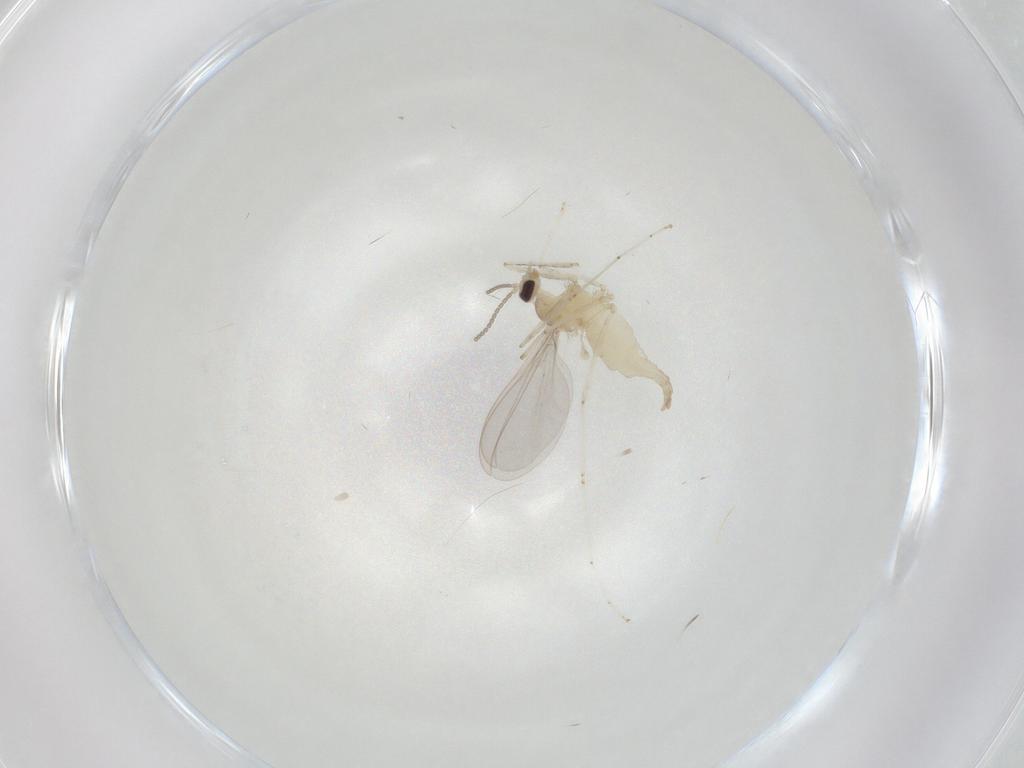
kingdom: Animalia
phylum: Arthropoda
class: Insecta
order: Diptera
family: Cecidomyiidae
